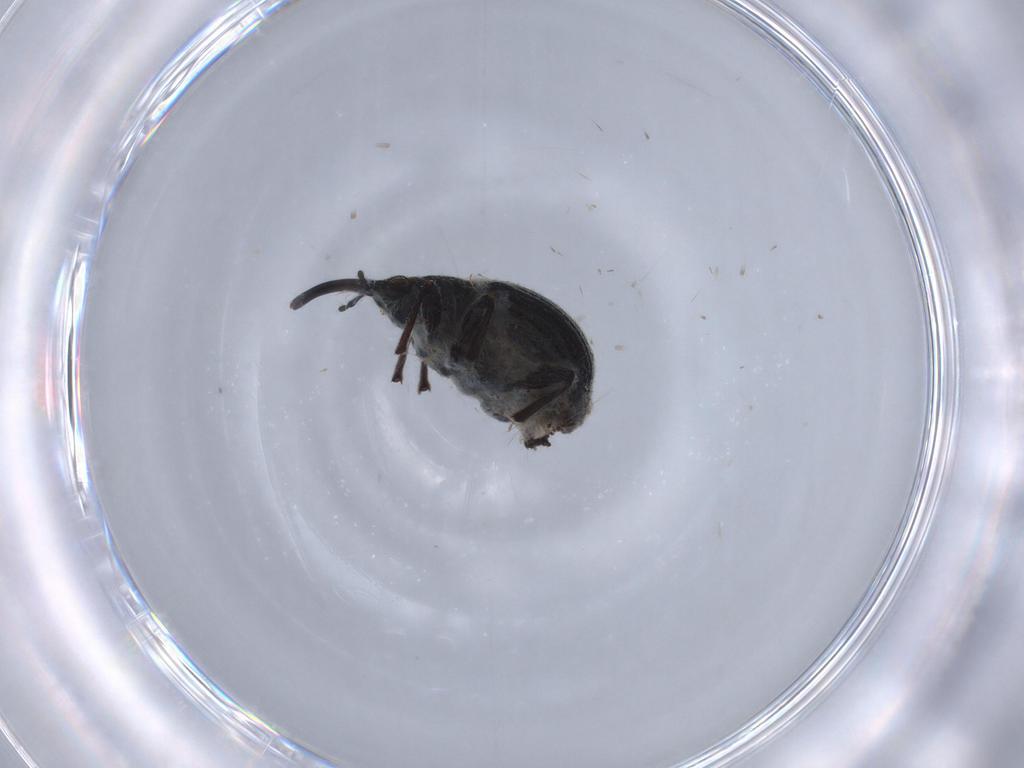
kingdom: Animalia
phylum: Arthropoda
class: Insecta
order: Coleoptera
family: Brentidae
